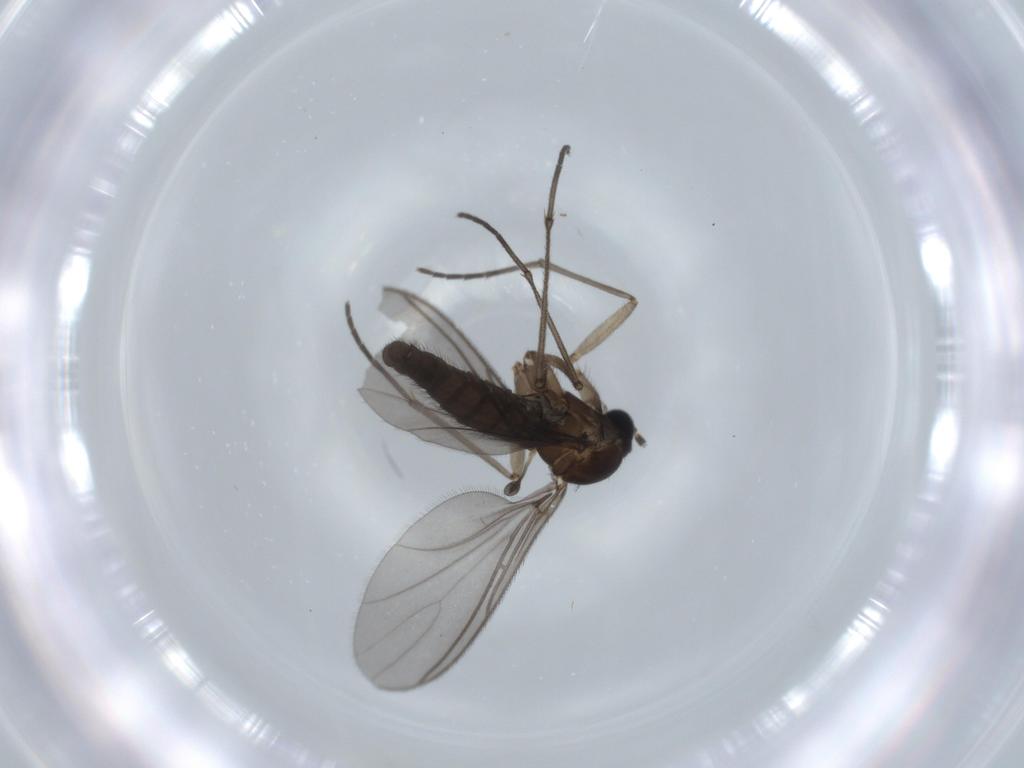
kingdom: Animalia
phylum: Arthropoda
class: Insecta
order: Diptera
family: Sciaridae
